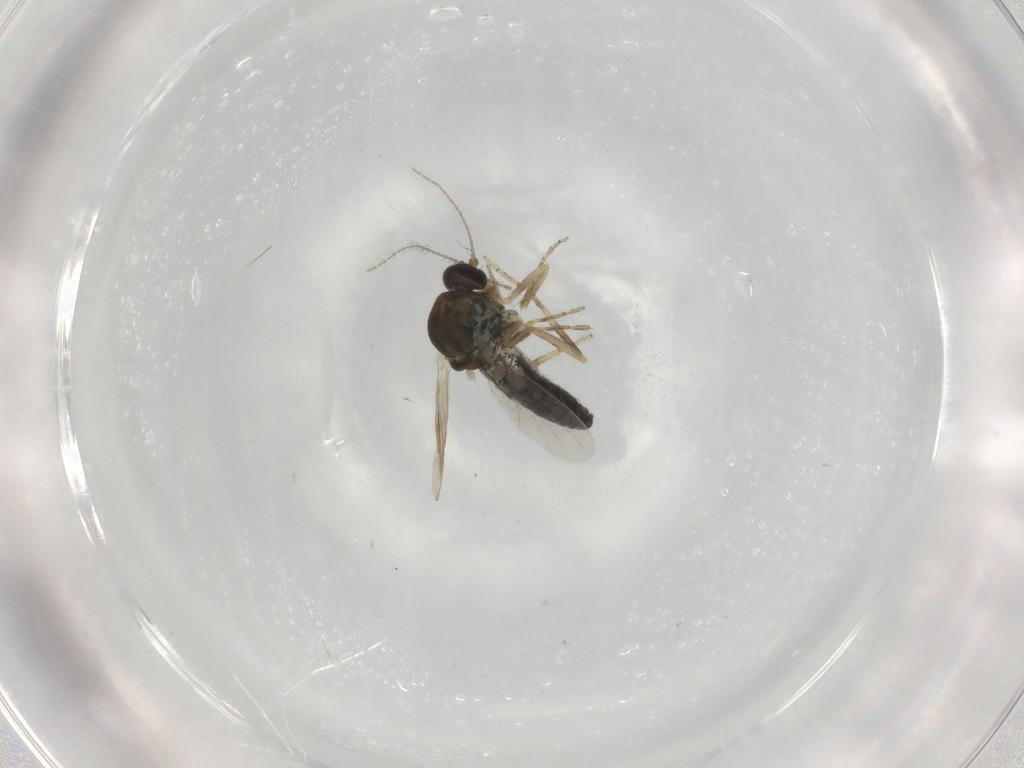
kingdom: Animalia
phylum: Arthropoda
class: Insecta
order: Diptera
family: Ceratopogonidae
